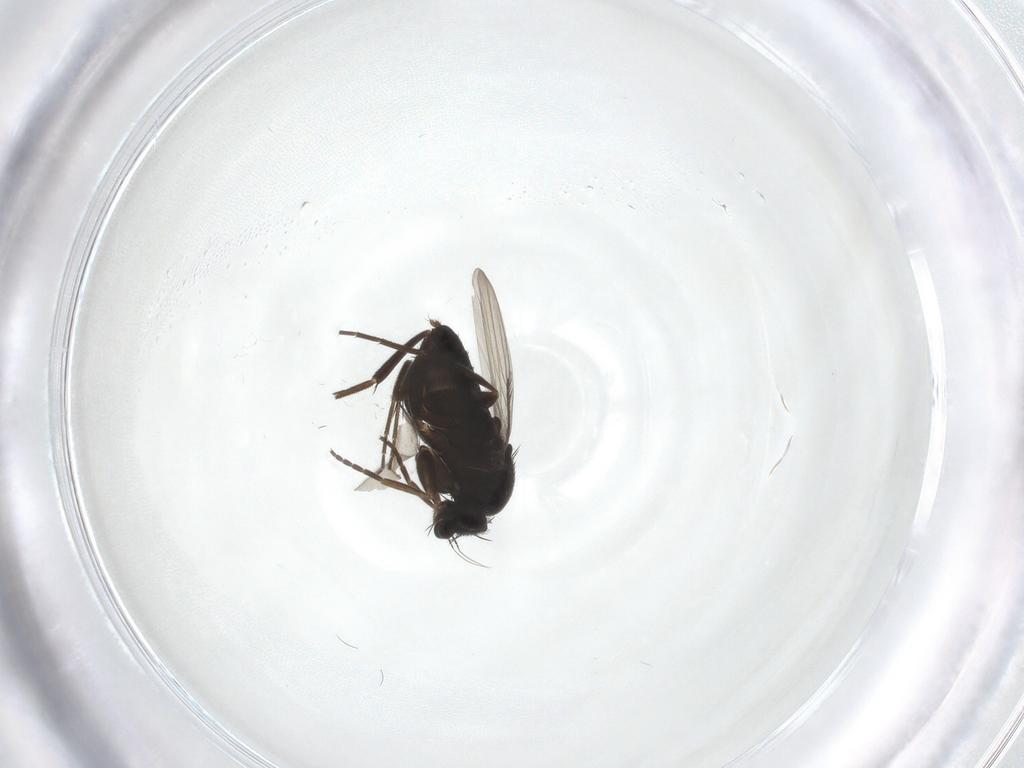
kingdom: Animalia
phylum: Arthropoda
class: Insecta
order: Diptera
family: Phoridae
